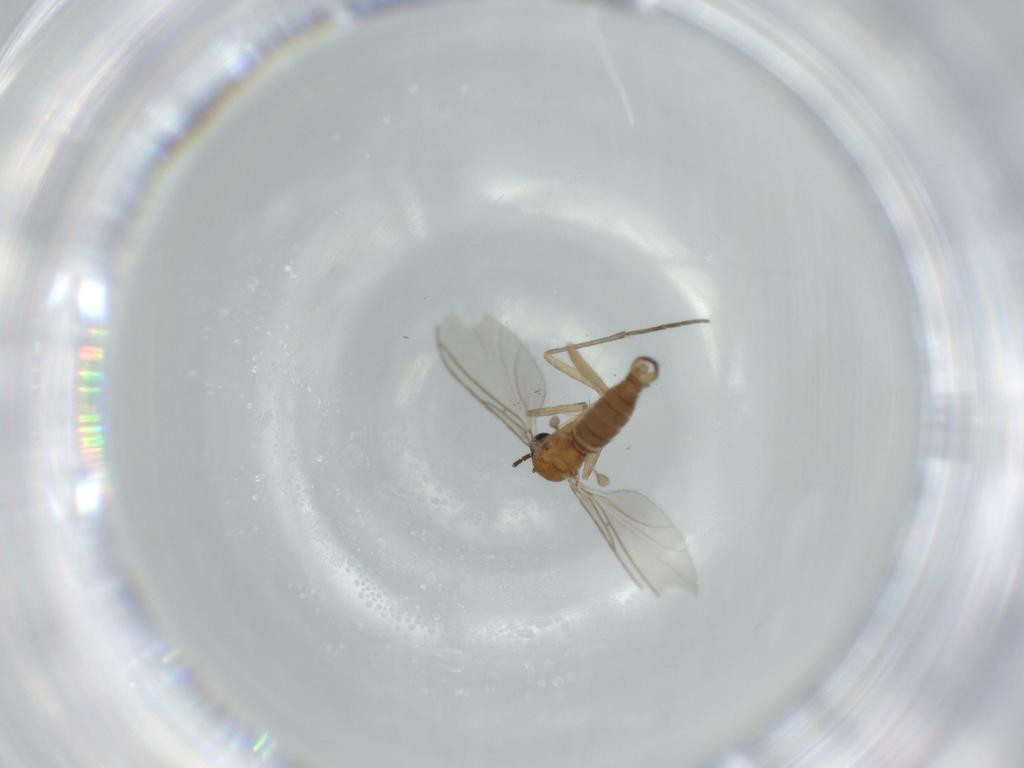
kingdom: Animalia
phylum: Arthropoda
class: Insecta
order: Diptera
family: Sciaridae
